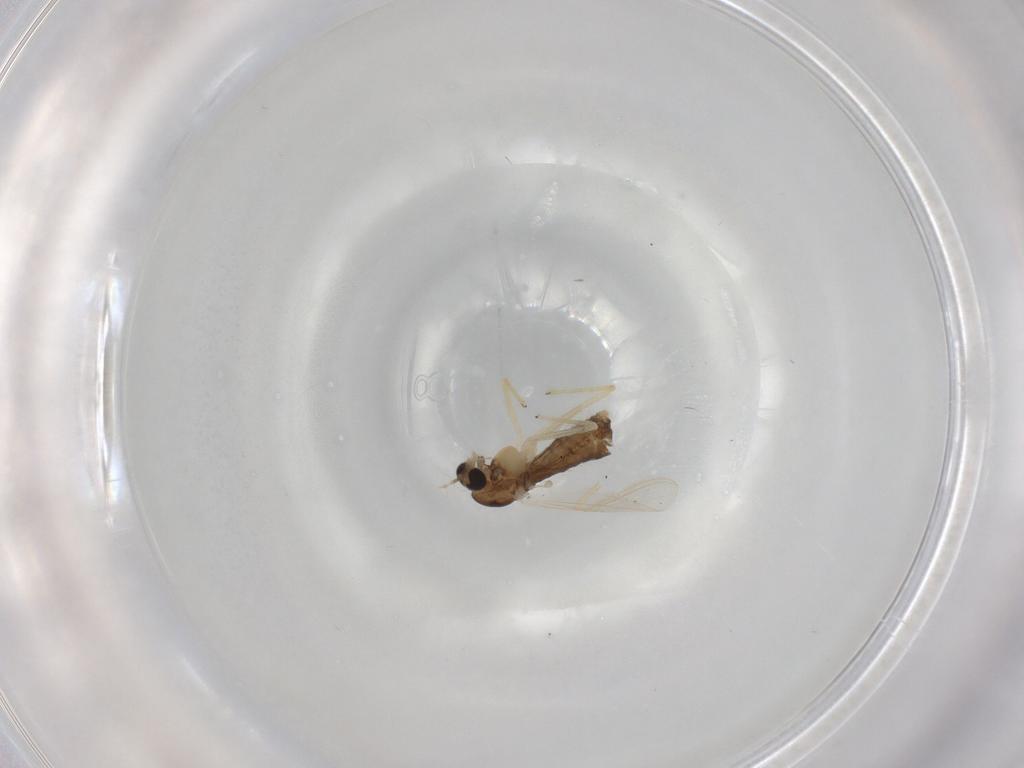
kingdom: Animalia
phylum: Arthropoda
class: Insecta
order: Diptera
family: Chironomidae
